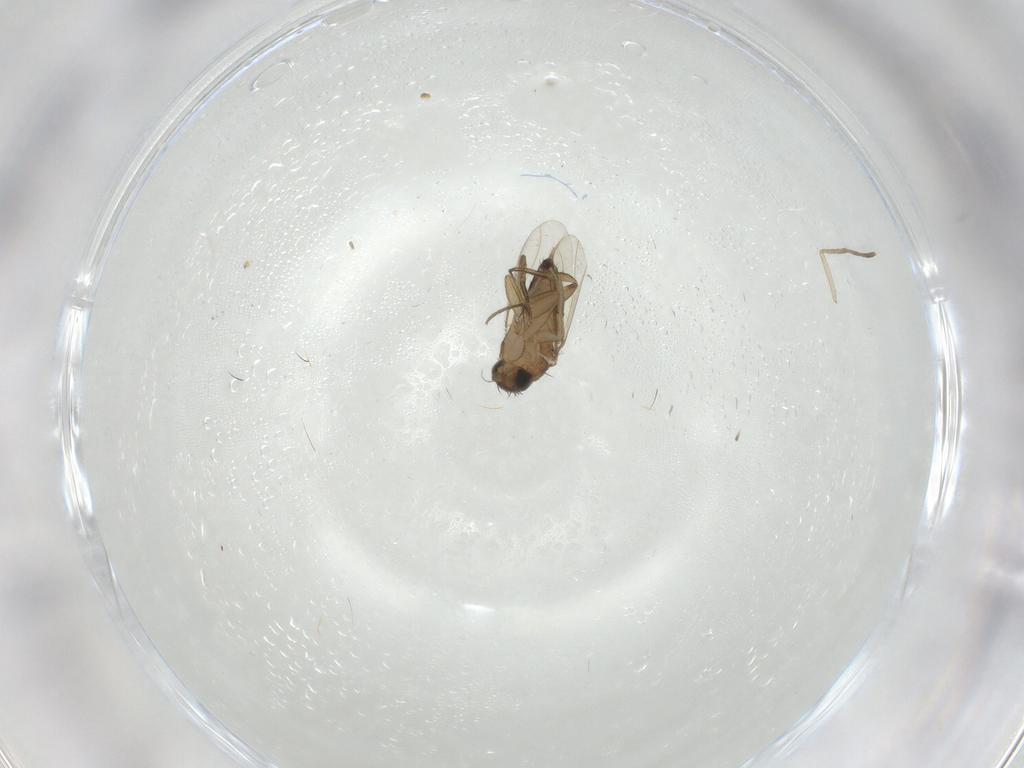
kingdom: Animalia
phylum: Arthropoda
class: Insecta
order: Diptera
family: Phoridae
